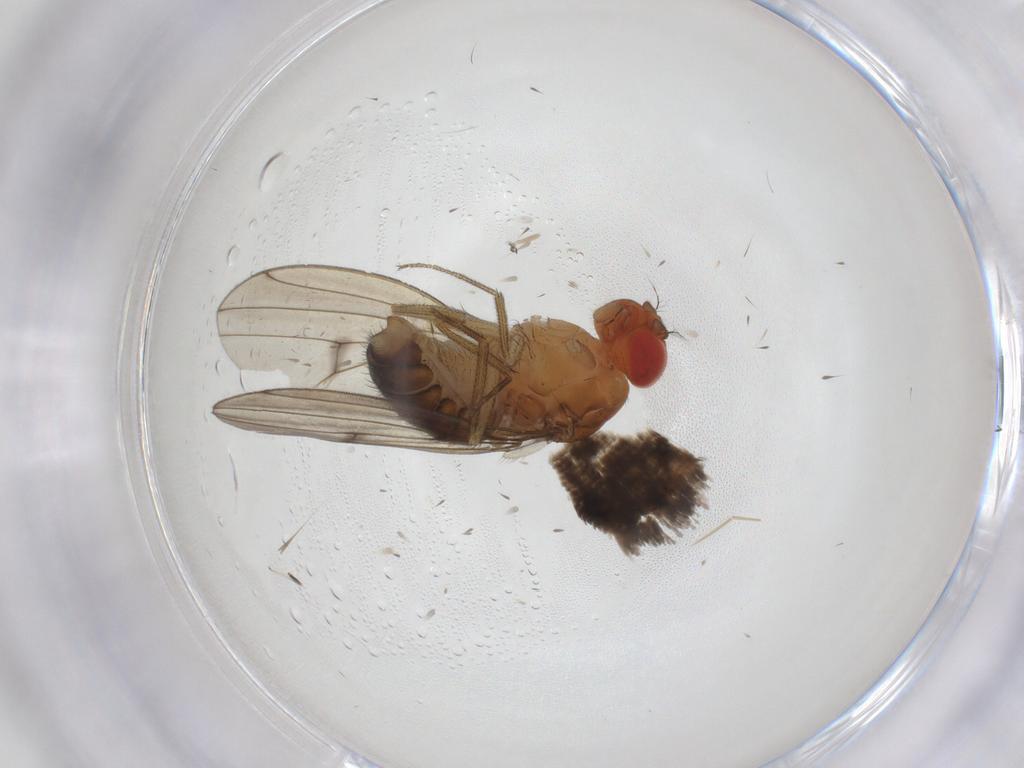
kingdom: Animalia
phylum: Arthropoda
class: Insecta
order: Diptera
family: Drosophilidae
